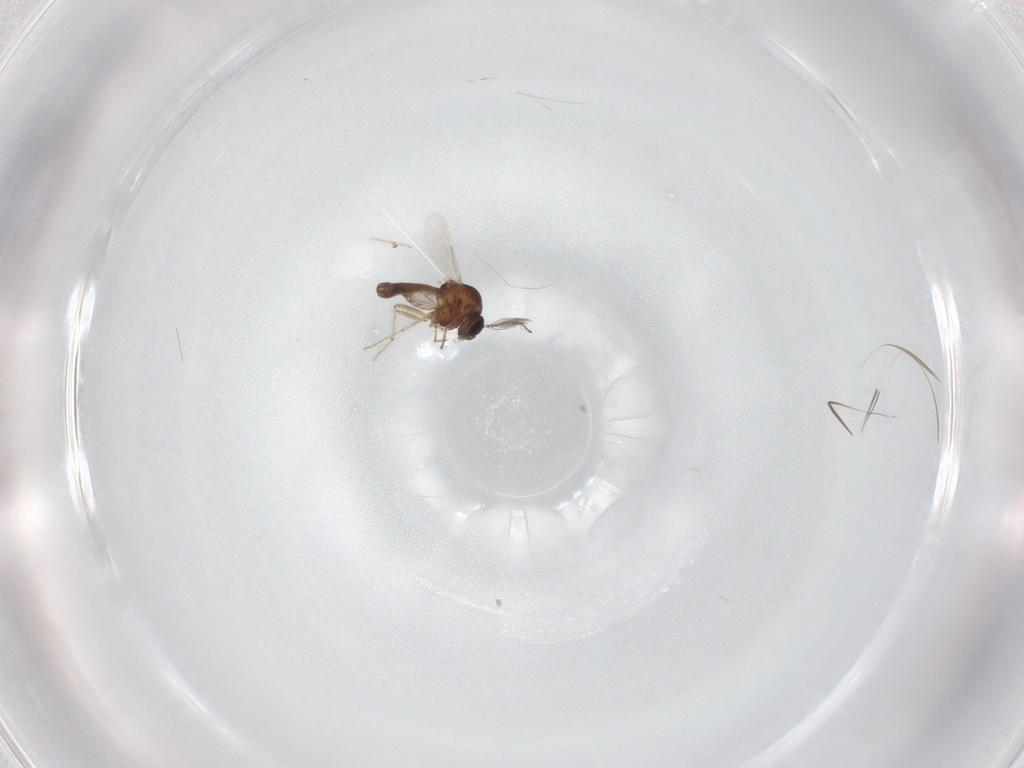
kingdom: Animalia
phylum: Arthropoda
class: Insecta
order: Diptera
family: Ceratopogonidae
